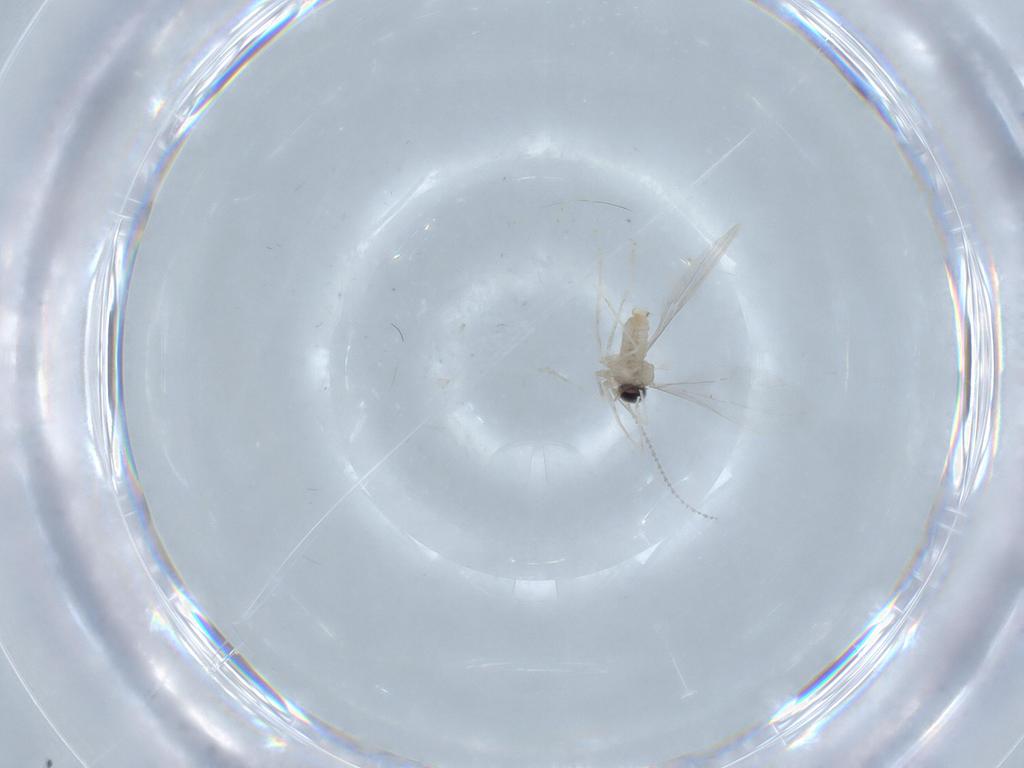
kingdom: Animalia
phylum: Arthropoda
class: Insecta
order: Diptera
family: Cecidomyiidae
